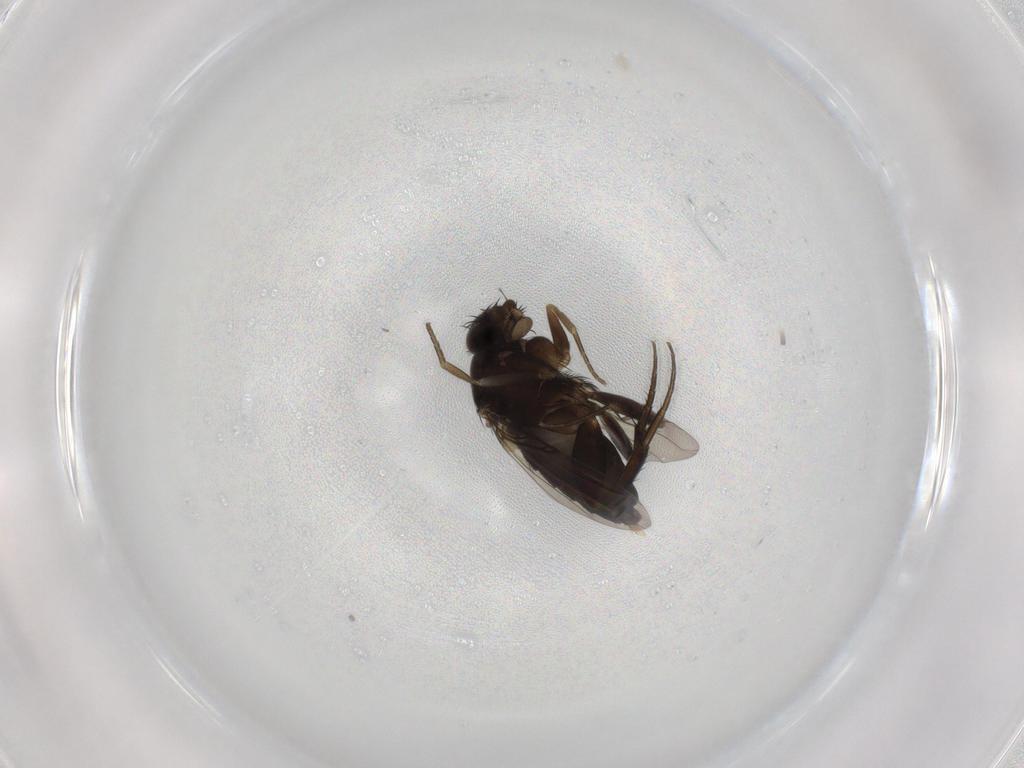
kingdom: Animalia
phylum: Arthropoda
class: Insecta
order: Diptera
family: Phoridae
